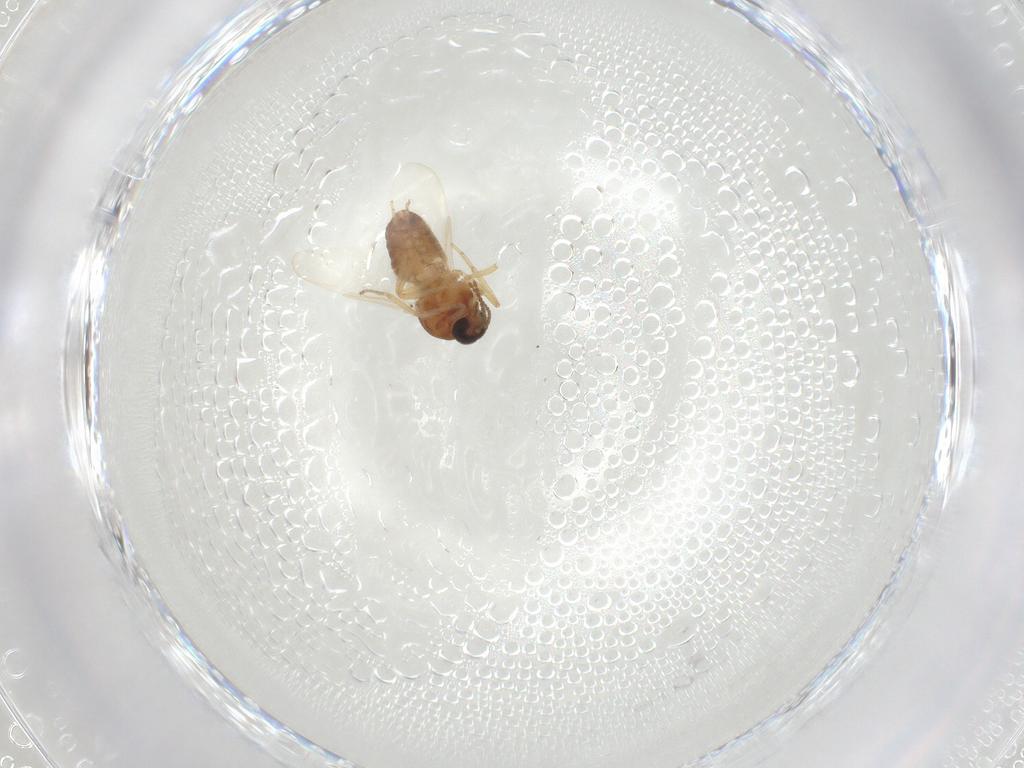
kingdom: Animalia
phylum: Arthropoda
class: Insecta
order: Diptera
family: Ceratopogonidae
